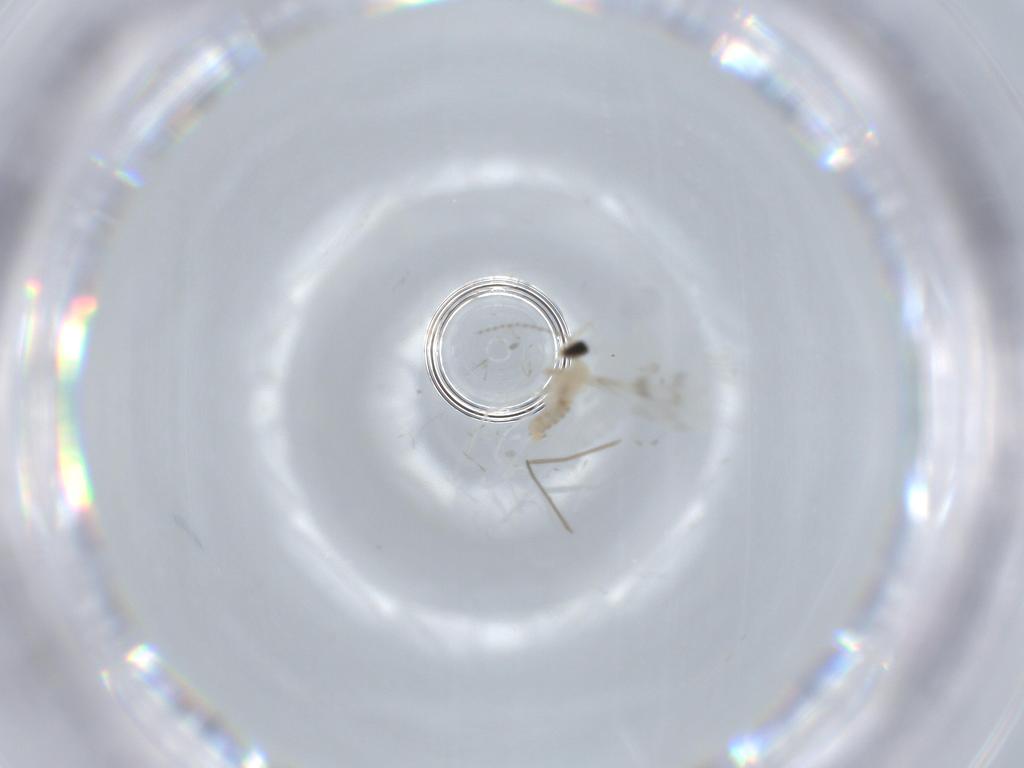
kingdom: Animalia
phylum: Arthropoda
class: Insecta
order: Diptera
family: Cecidomyiidae
